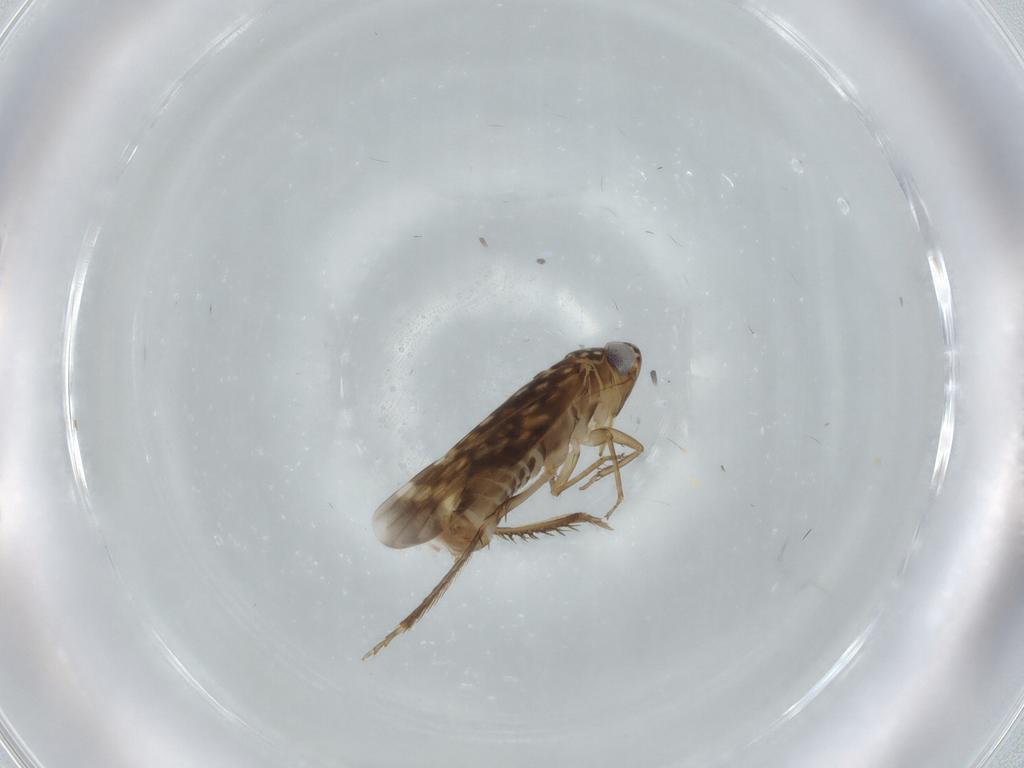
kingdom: Animalia
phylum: Arthropoda
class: Insecta
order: Hemiptera
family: Cicadellidae
